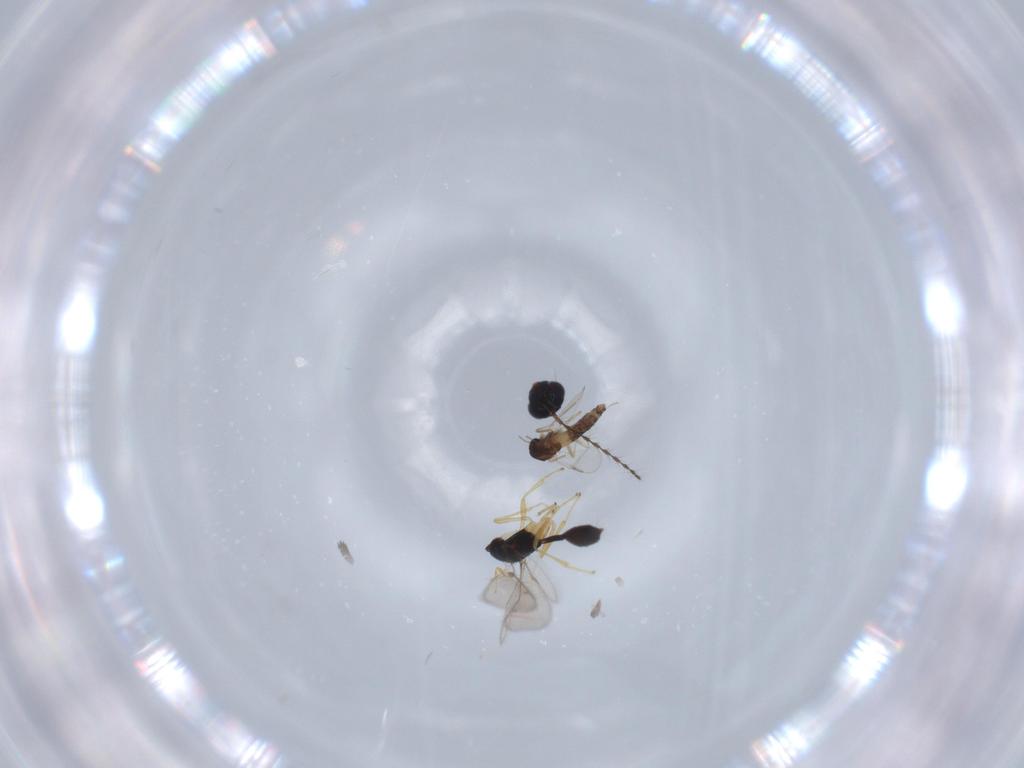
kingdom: Animalia
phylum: Arthropoda
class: Insecta
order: Diptera
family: Chironomidae
